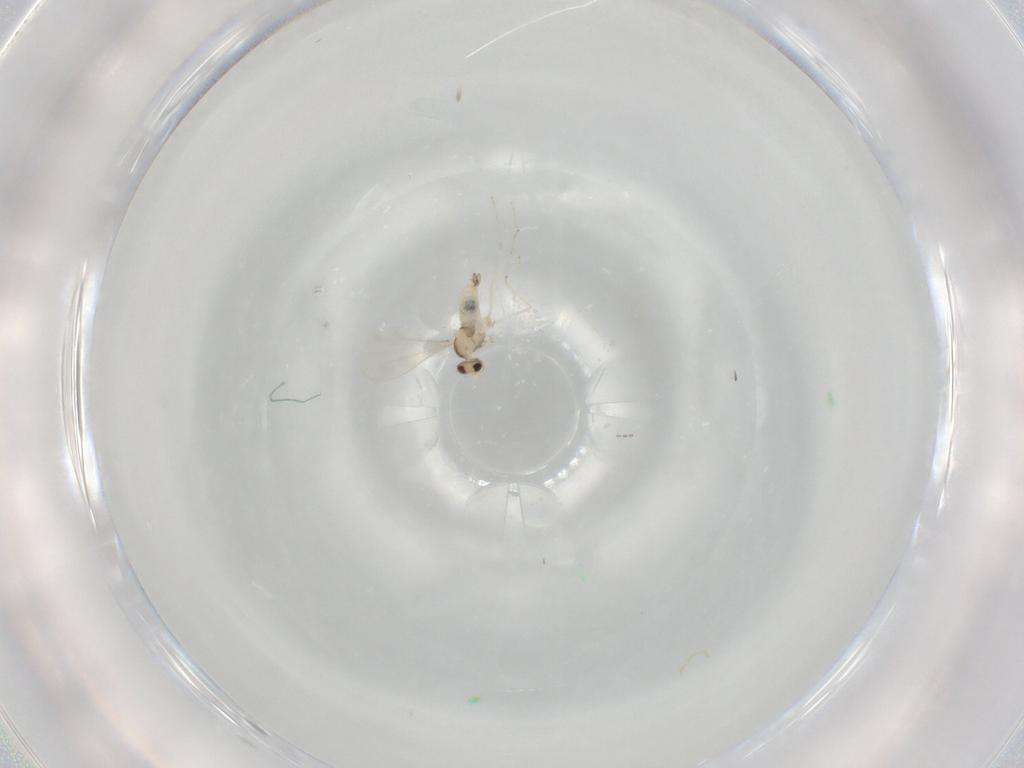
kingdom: Animalia
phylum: Arthropoda
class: Insecta
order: Diptera
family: Cecidomyiidae
